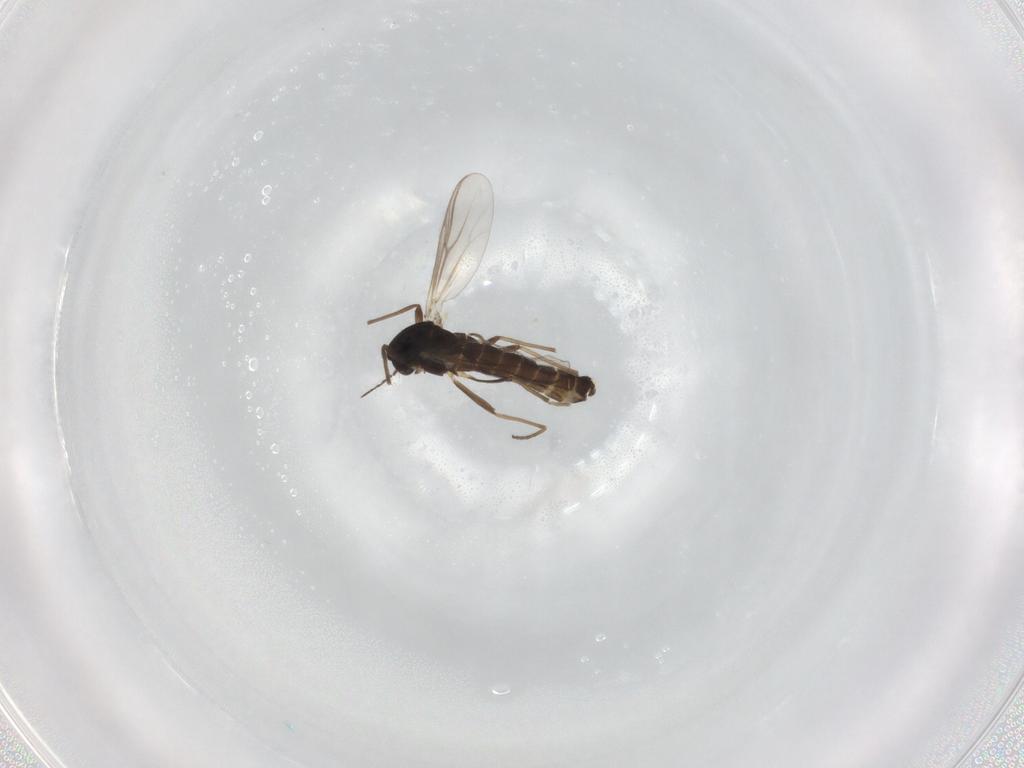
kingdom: Animalia
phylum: Arthropoda
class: Insecta
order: Diptera
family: Chironomidae
